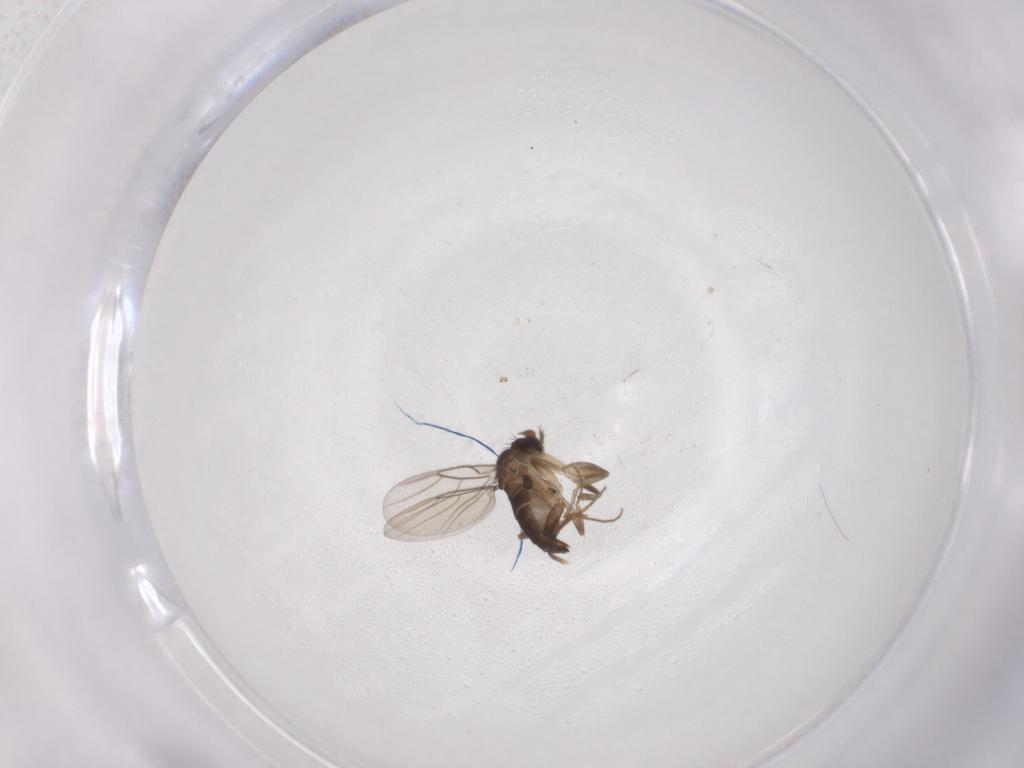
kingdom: Animalia
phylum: Arthropoda
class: Insecta
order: Diptera
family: Phoridae
